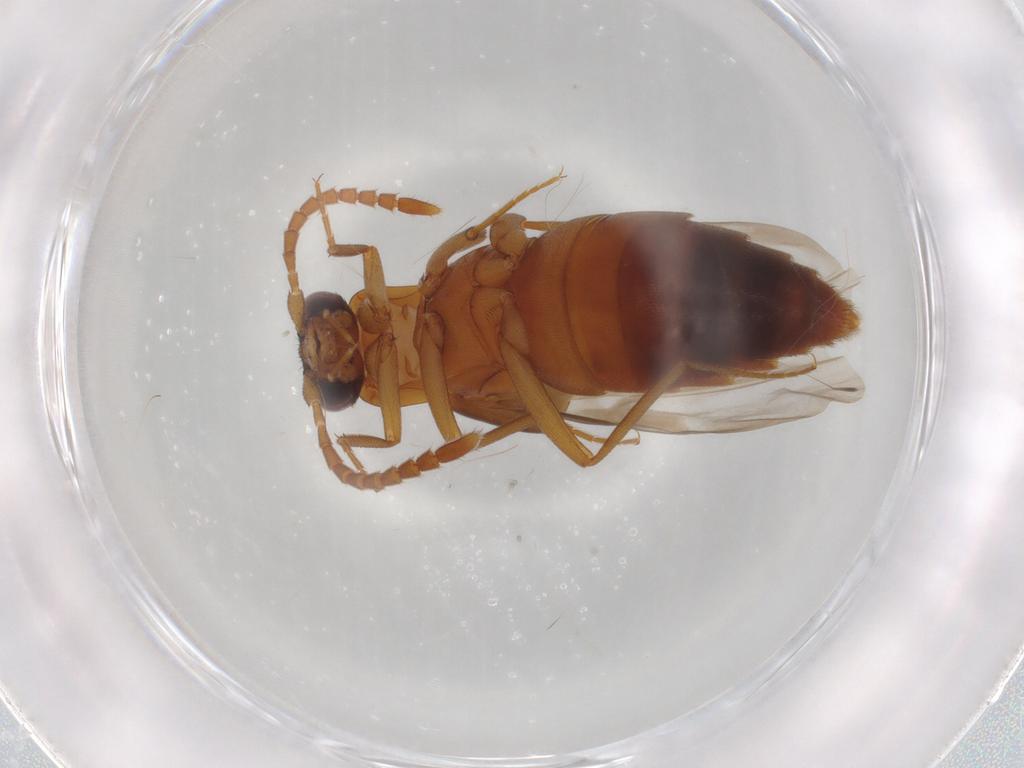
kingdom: Animalia
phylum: Arthropoda
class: Insecta
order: Coleoptera
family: Staphylinidae
